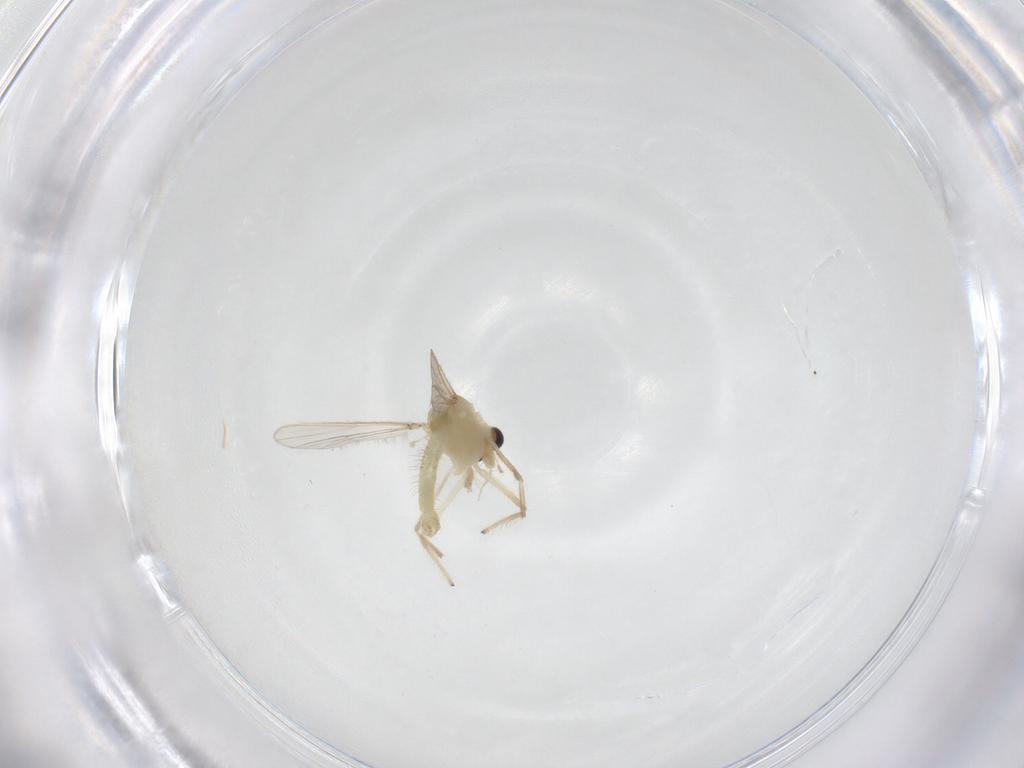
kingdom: Animalia
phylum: Arthropoda
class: Insecta
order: Diptera
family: Chironomidae
